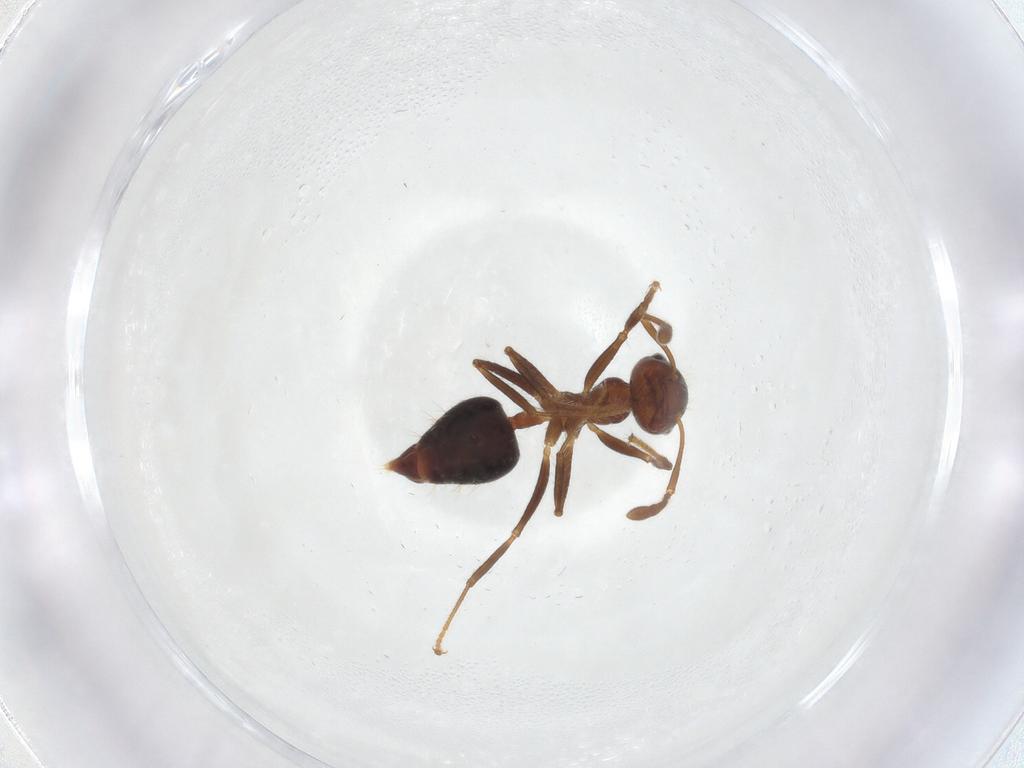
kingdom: Animalia
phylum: Arthropoda
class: Insecta
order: Hymenoptera
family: Formicidae
